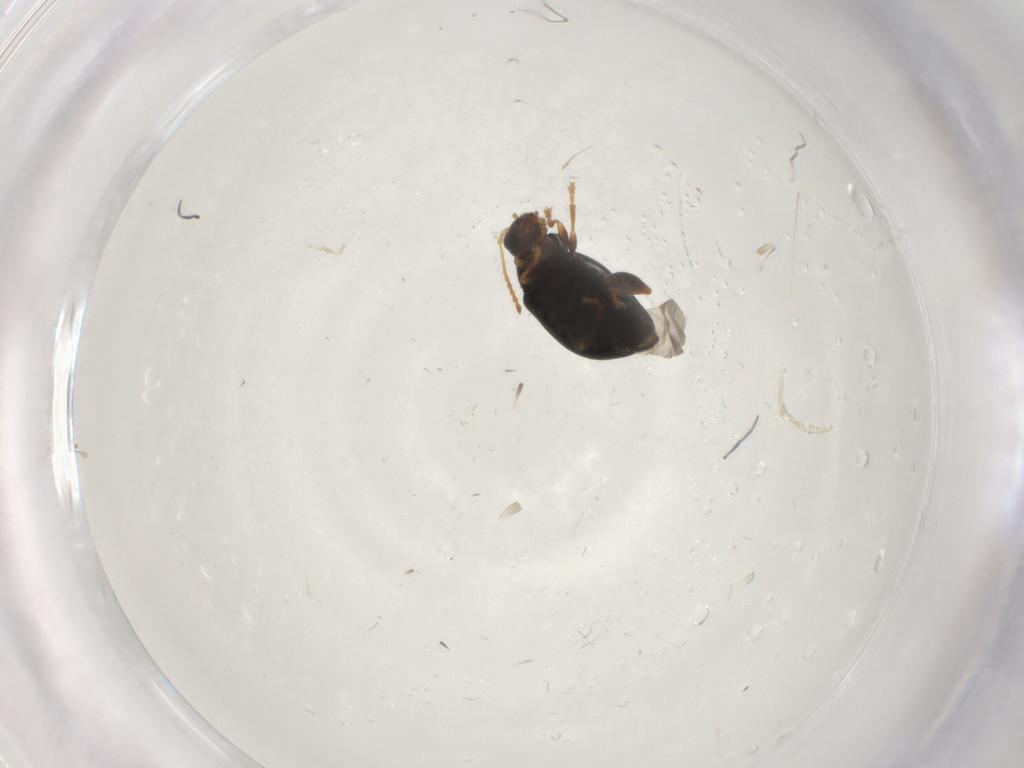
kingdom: Animalia
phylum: Arthropoda
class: Insecta
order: Coleoptera
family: Chrysomelidae
